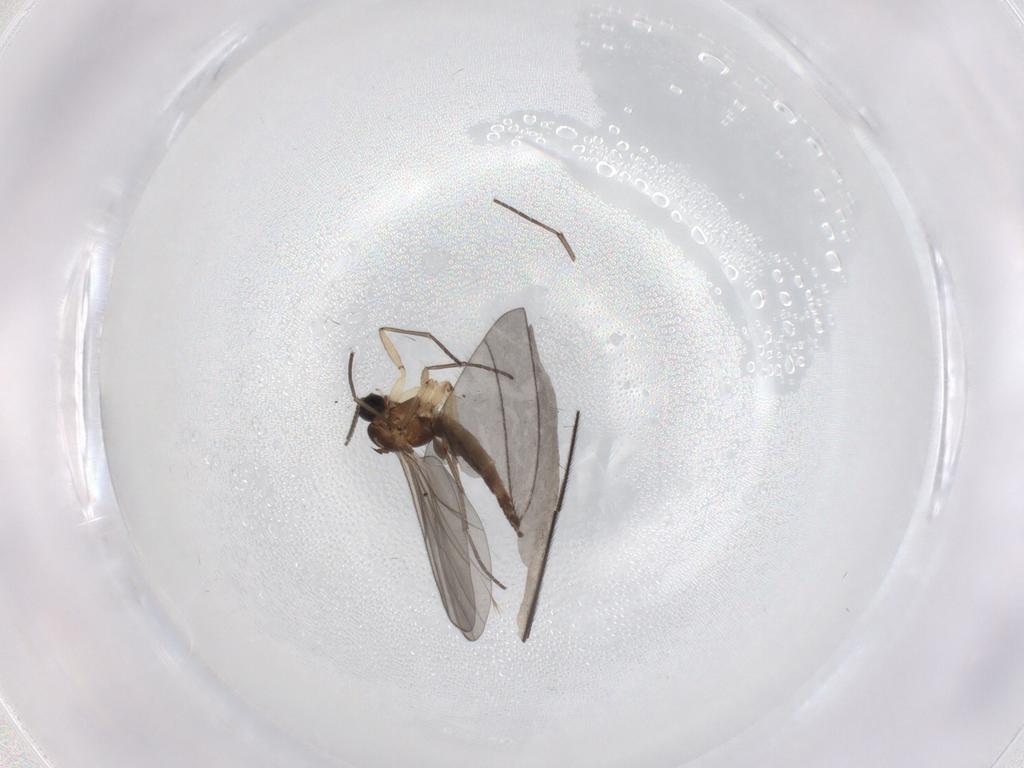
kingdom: Animalia
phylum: Arthropoda
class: Insecta
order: Diptera
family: Sciaridae
